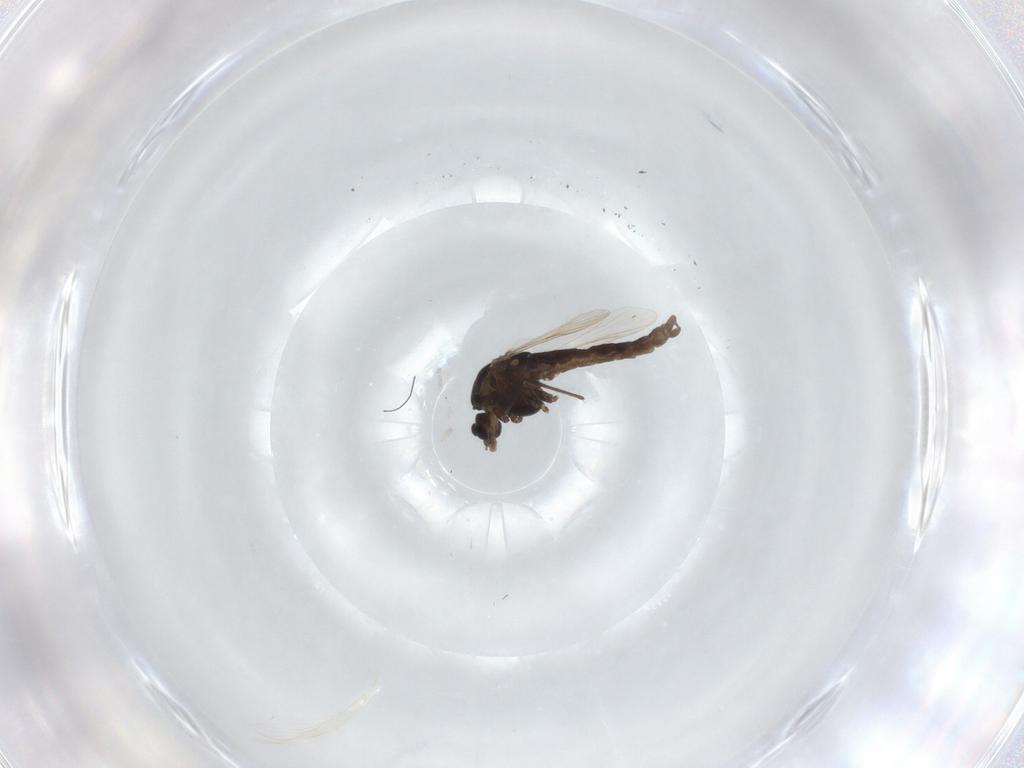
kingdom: Animalia
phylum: Arthropoda
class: Insecta
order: Diptera
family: Chironomidae
